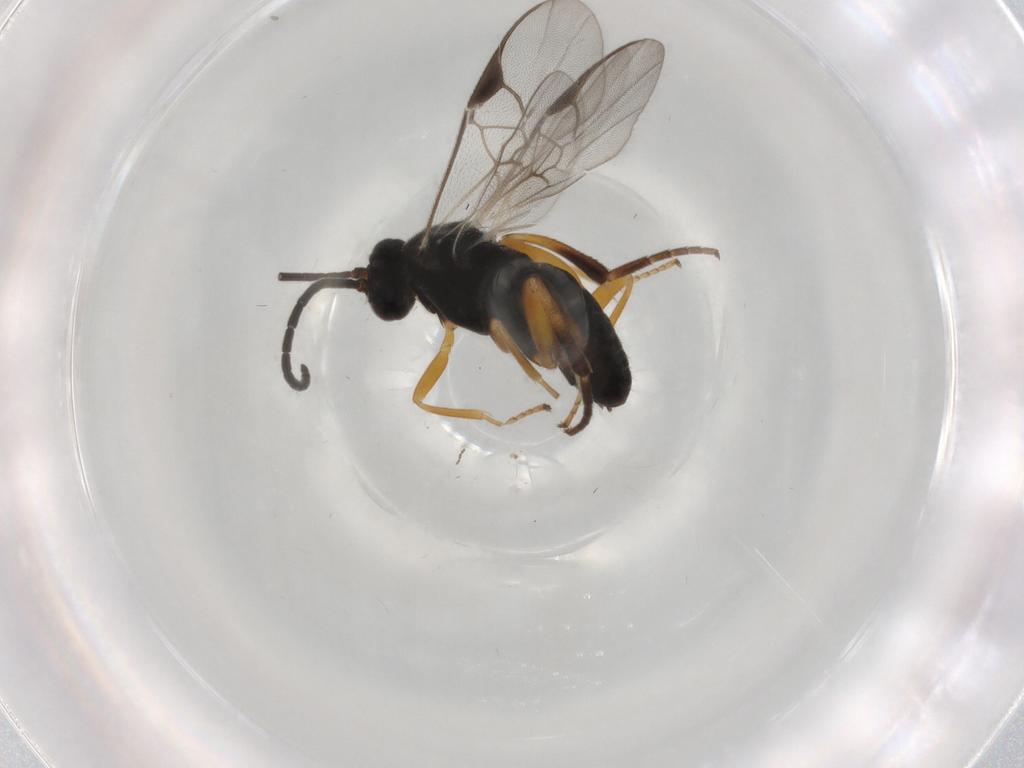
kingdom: Animalia
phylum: Arthropoda
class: Insecta
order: Hymenoptera
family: Braconidae
